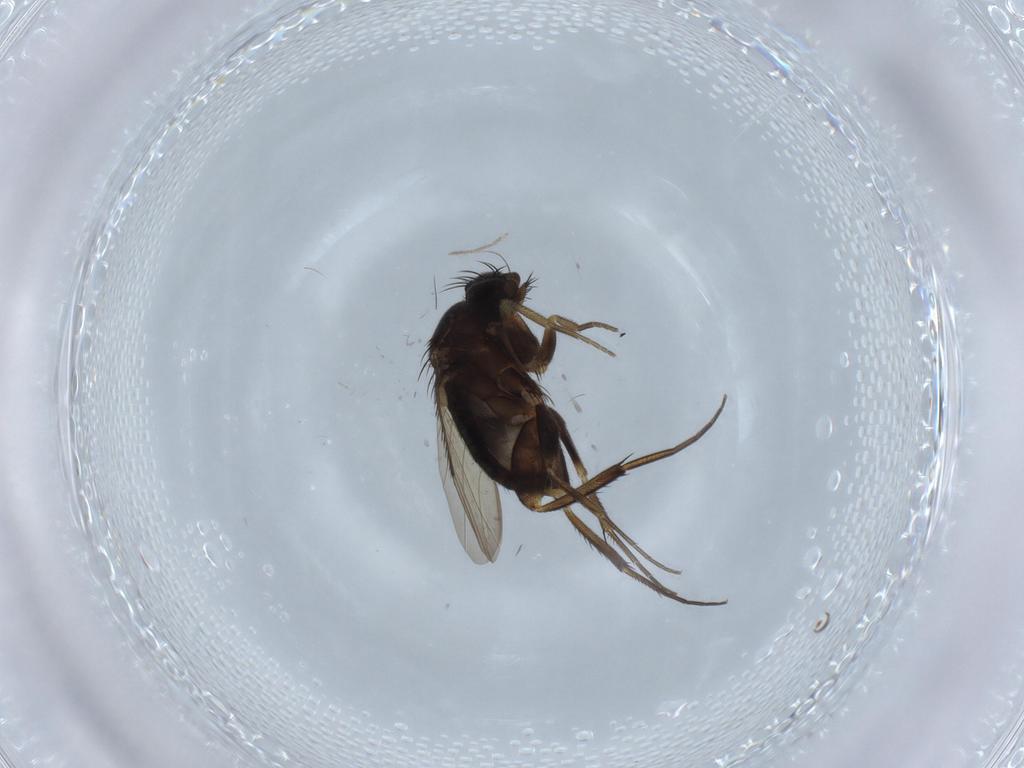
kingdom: Animalia
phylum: Arthropoda
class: Insecta
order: Diptera
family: Phoridae
